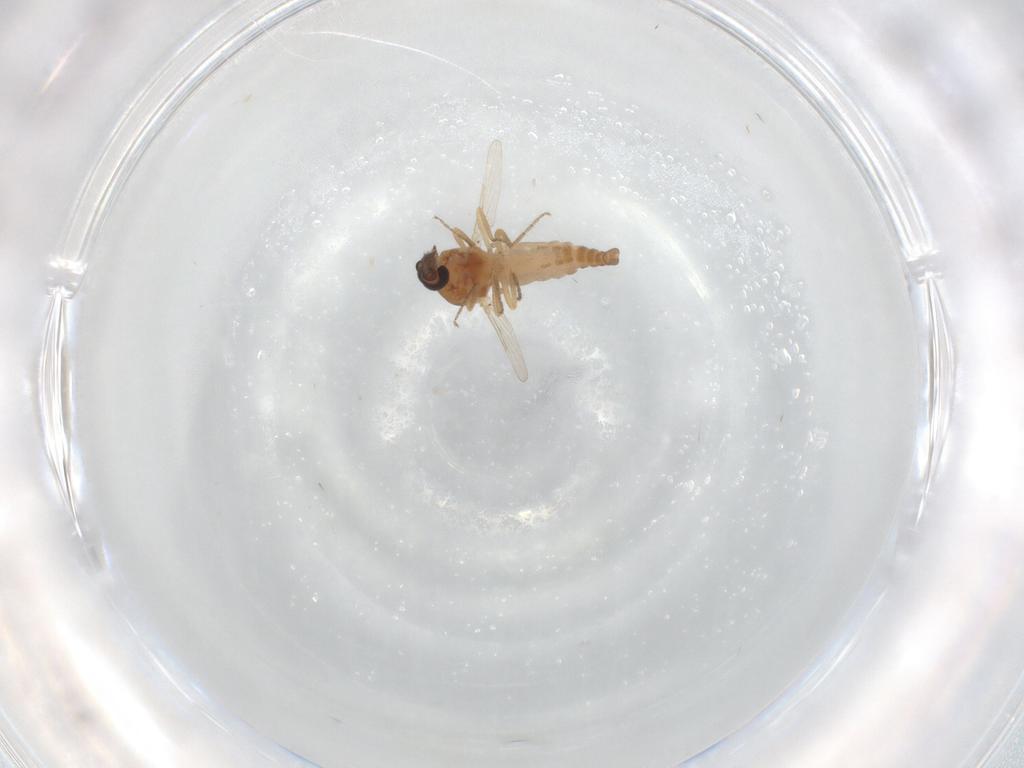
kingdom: Animalia
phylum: Arthropoda
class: Insecta
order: Diptera
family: Ceratopogonidae
